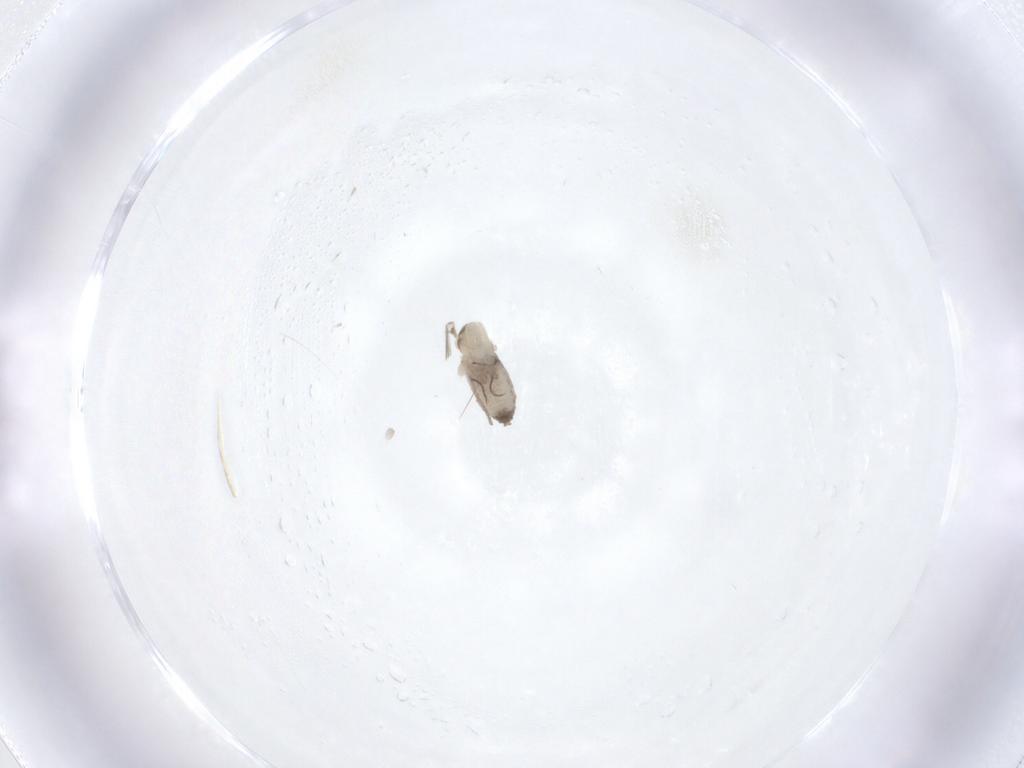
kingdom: Animalia
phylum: Arthropoda
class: Insecta
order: Diptera
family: Psychodidae
